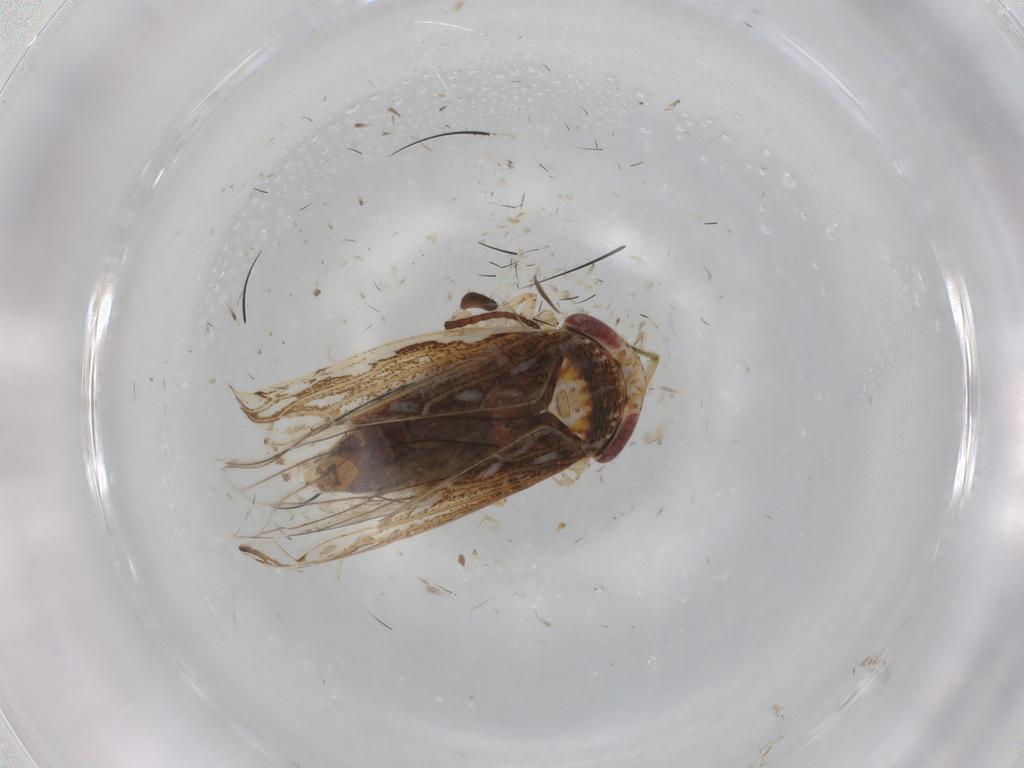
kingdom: Animalia
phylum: Arthropoda
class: Insecta
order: Hemiptera
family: Cicadellidae
